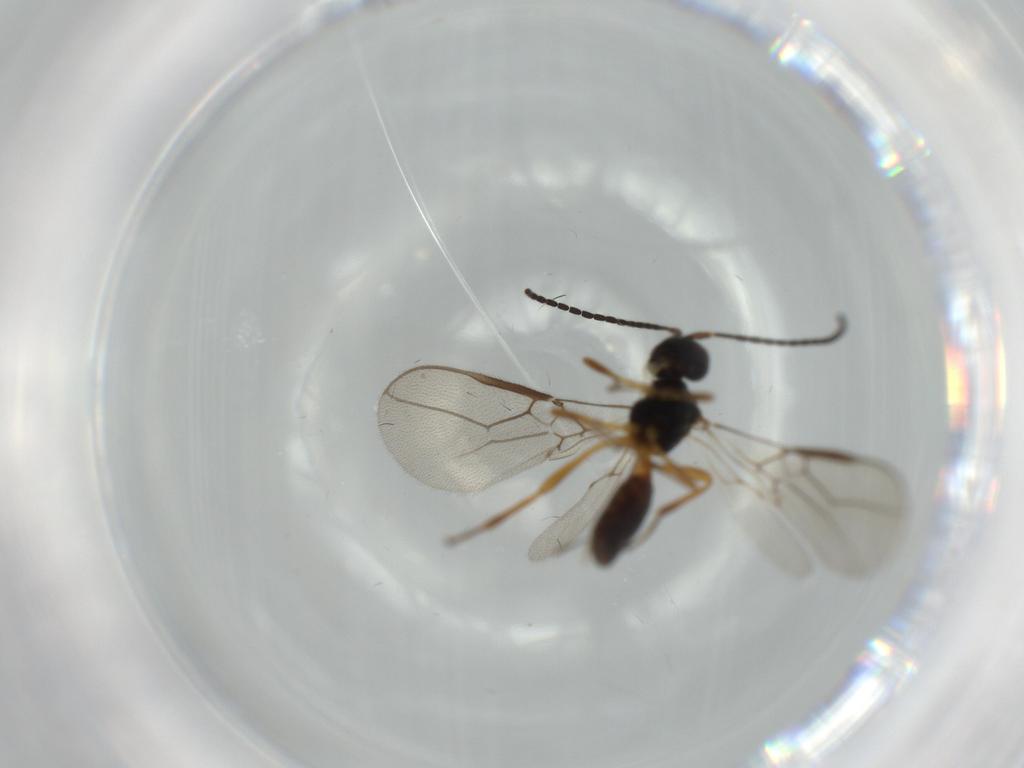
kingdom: Animalia
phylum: Arthropoda
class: Insecta
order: Hymenoptera
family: Braconidae
